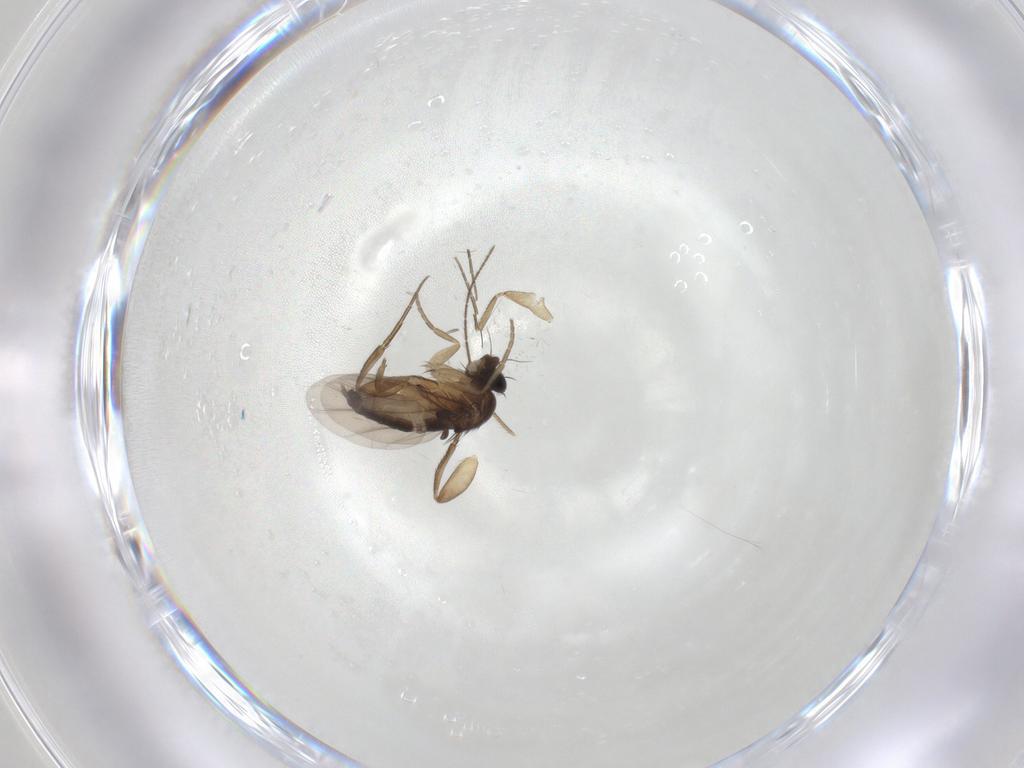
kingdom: Animalia
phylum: Arthropoda
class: Insecta
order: Diptera
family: Phoridae
